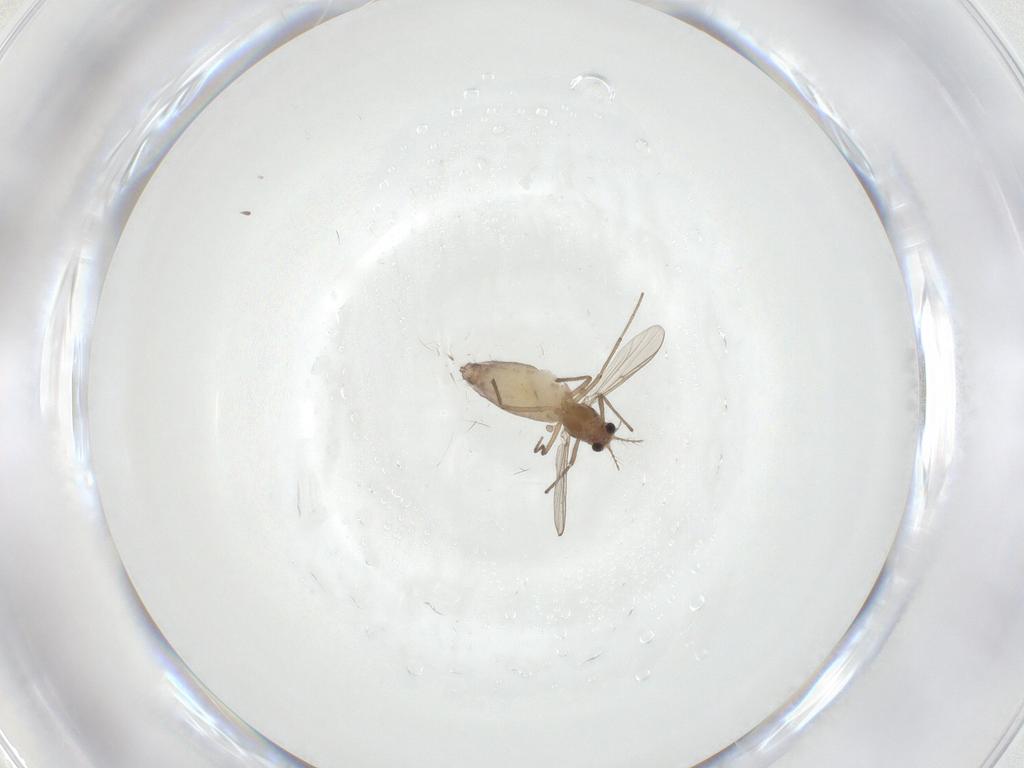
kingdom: Animalia
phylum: Arthropoda
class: Insecta
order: Diptera
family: Chironomidae
